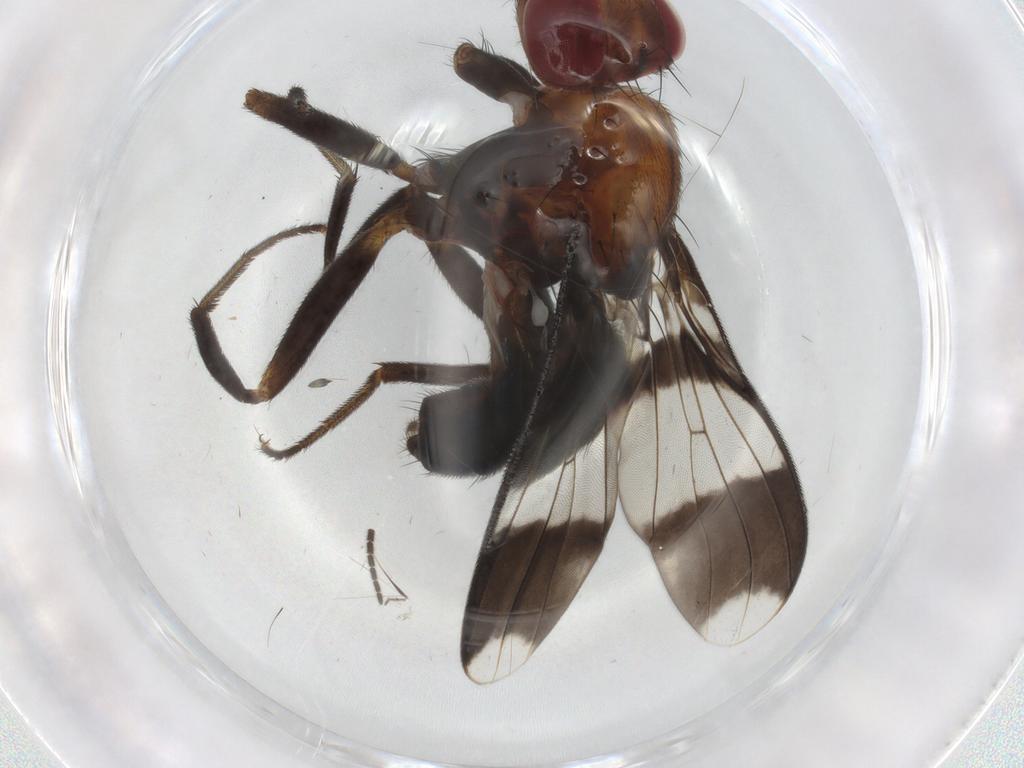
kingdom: Animalia
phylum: Arthropoda
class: Insecta
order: Diptera
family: Richardiidae
